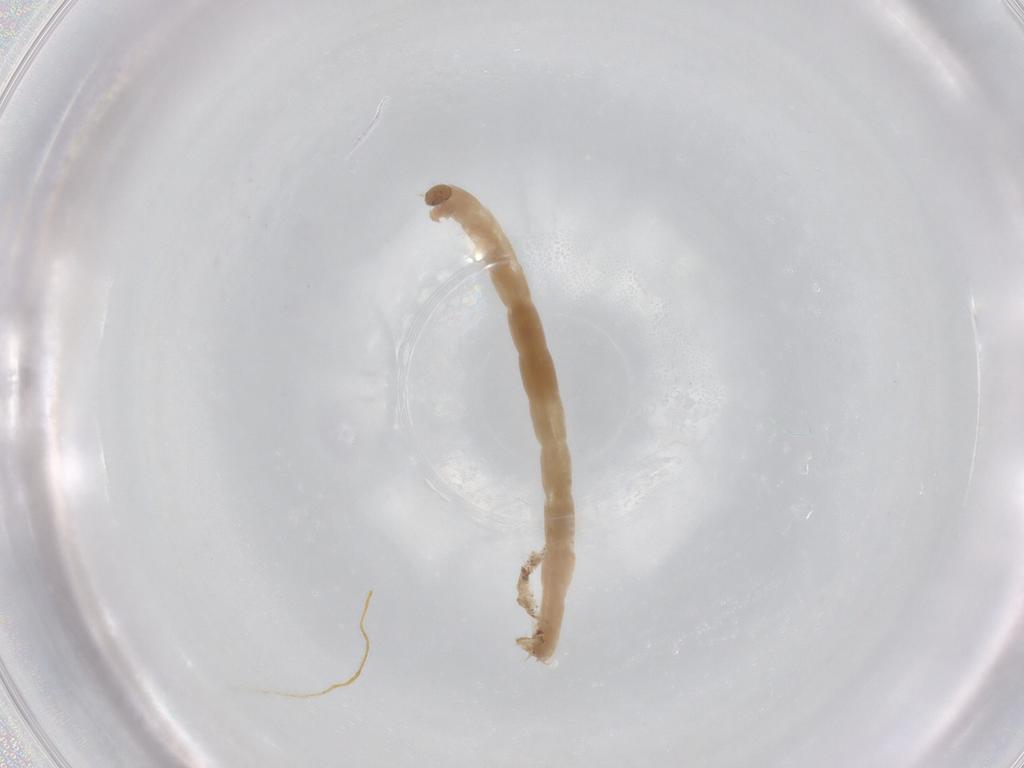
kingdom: Animalia
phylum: Arthropoda
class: Insecta
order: Diptera
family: Chironomidae
